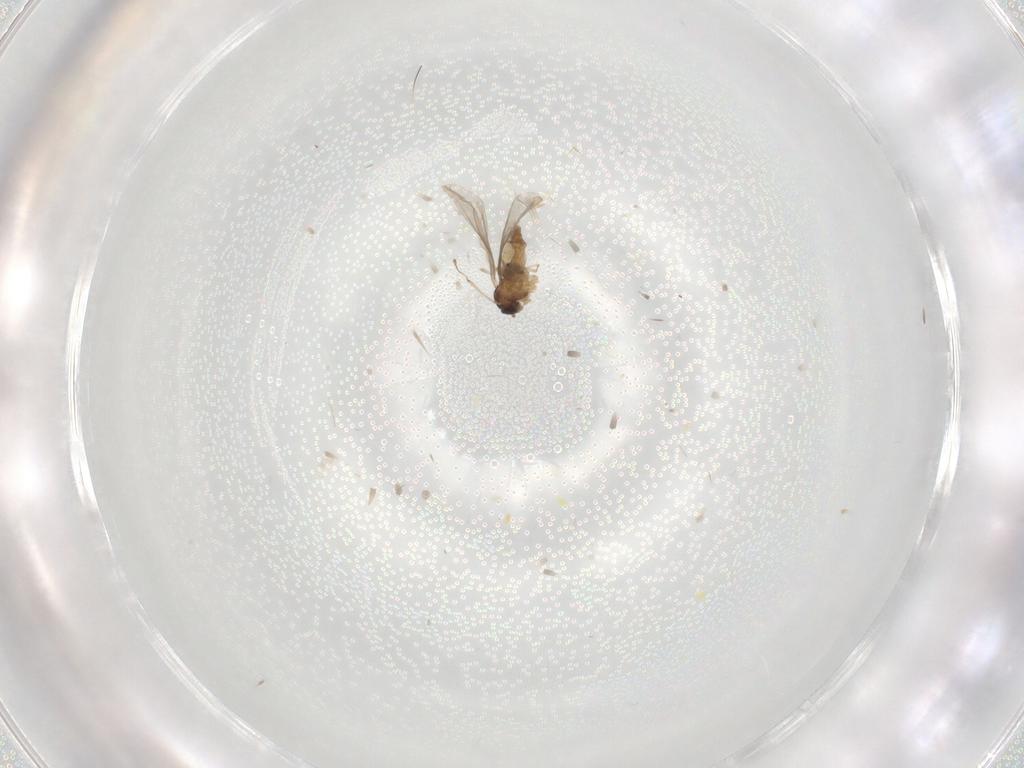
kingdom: Animalia
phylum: Arthropoda
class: Insecta
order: Diptera
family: Cecidomyiidae
